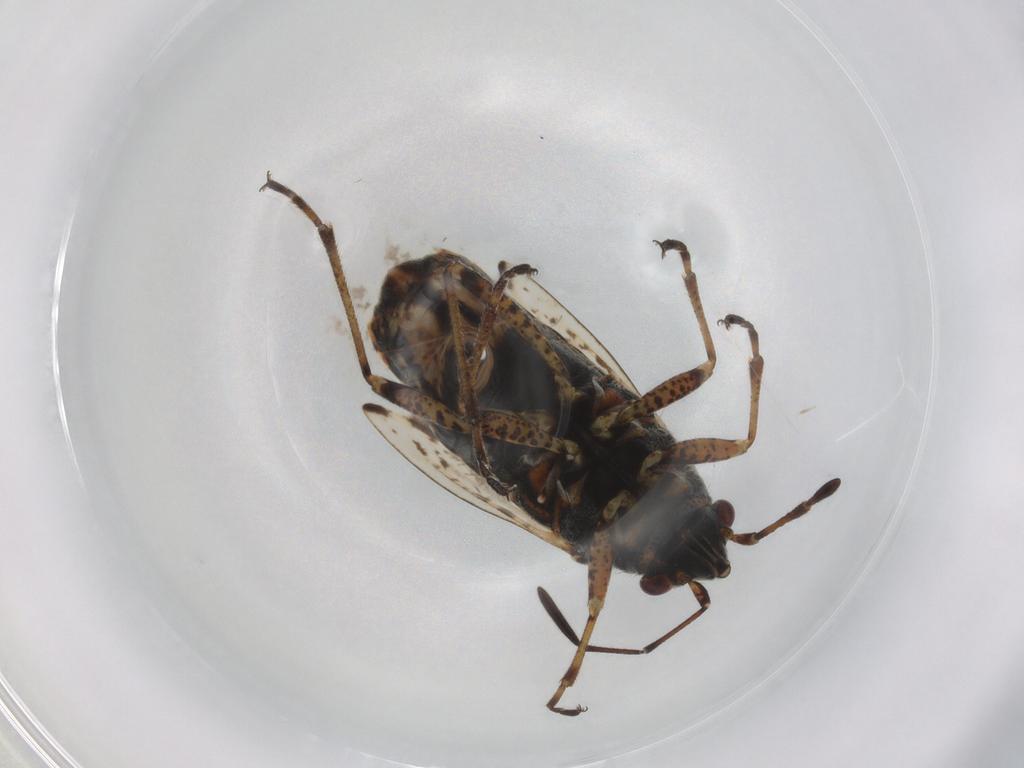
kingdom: Animalia
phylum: Arthropoda
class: Insecta
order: Hemiptera
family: Lygaeidae
